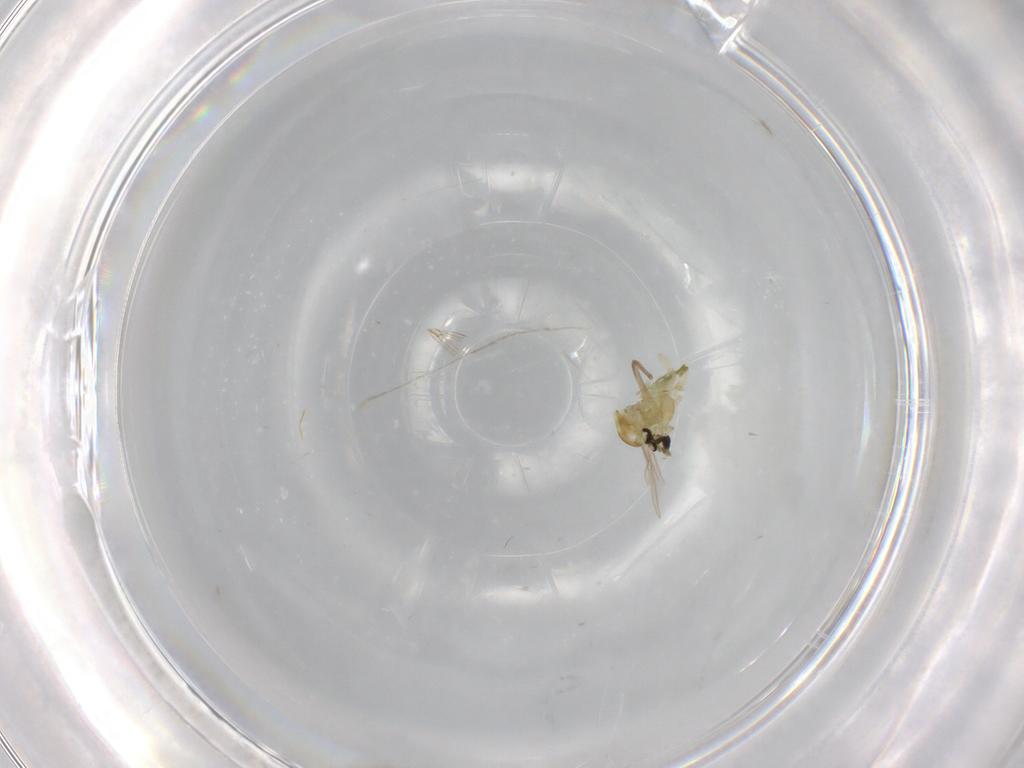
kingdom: Animalia
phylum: Arthropoda
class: Insecta
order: Diptera
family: Chironomidae
